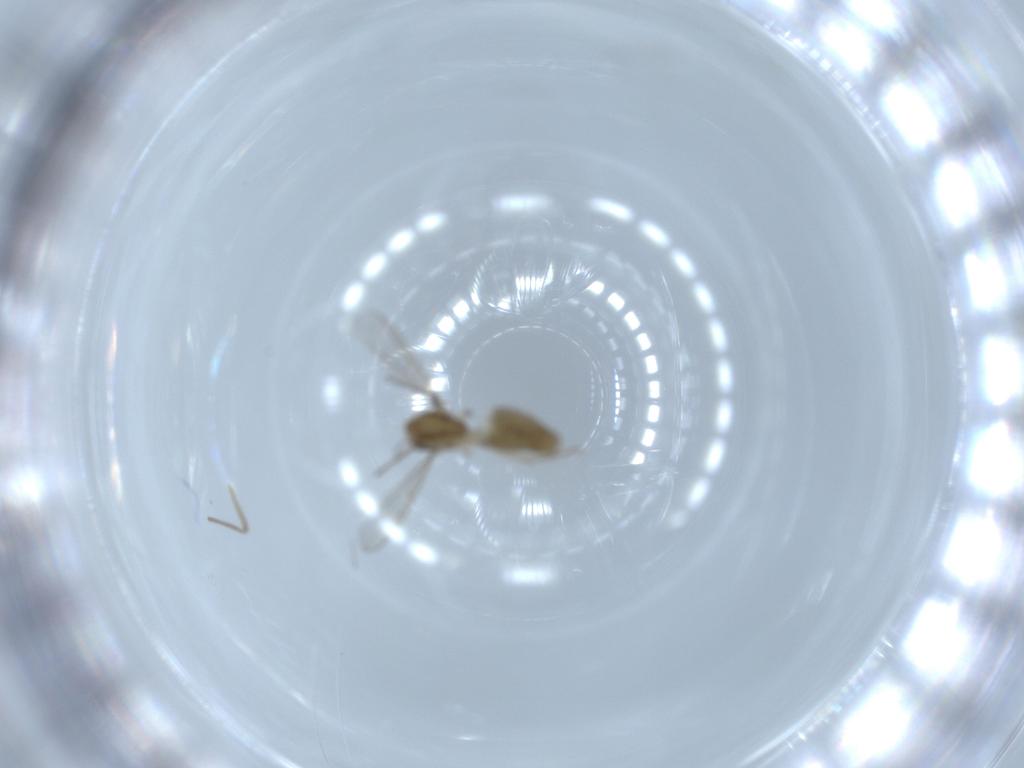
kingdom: Animalia
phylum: Arthropoda
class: Insecta
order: Diptera
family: Chironomidae
